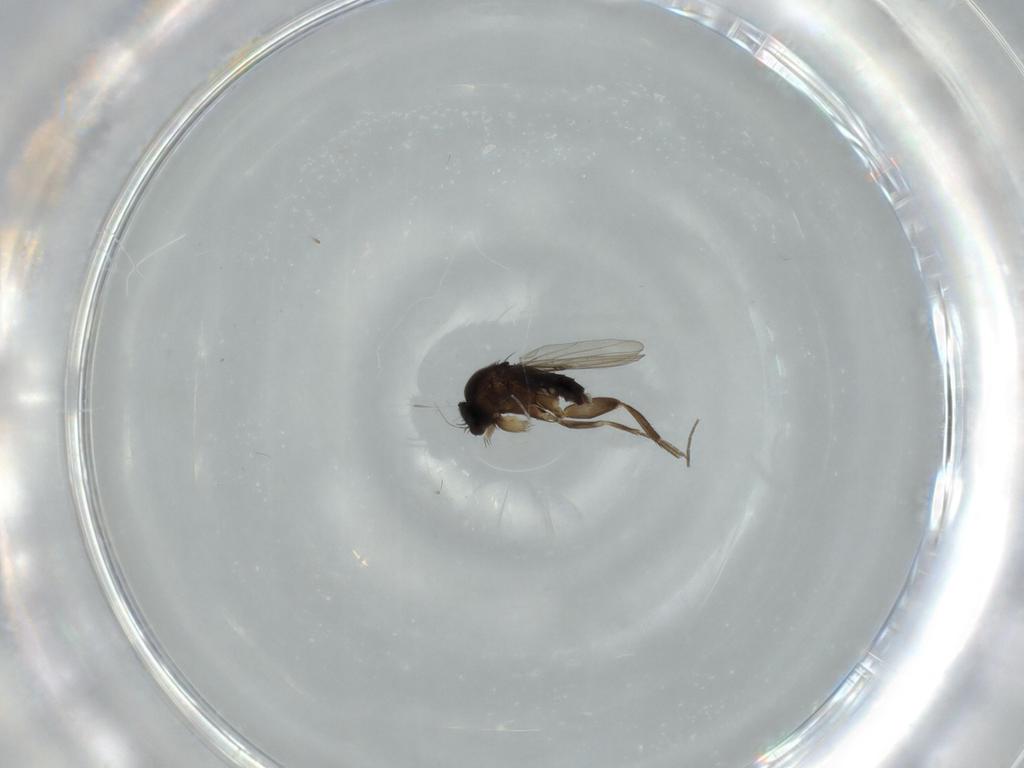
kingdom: Animalia
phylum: Arthropoda
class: Insecta
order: Diptera
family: Phoridae
